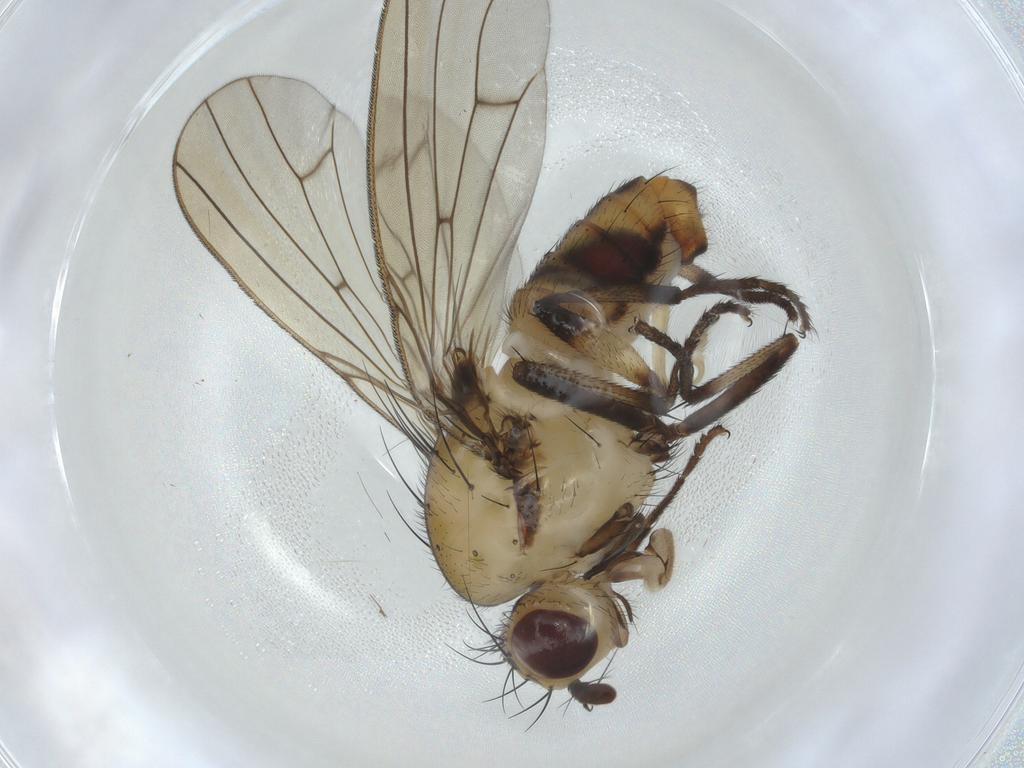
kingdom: Animalia
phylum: Arthropoda
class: Insecta
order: Diptera
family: Lauxaniidae
